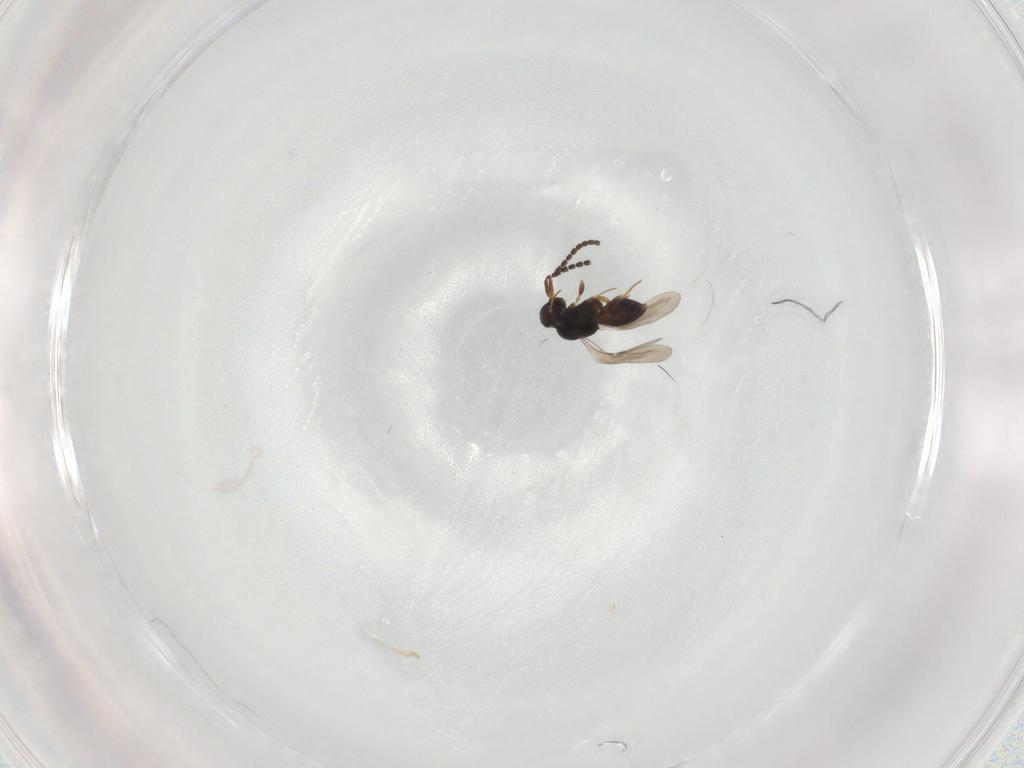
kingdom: Animalia
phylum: Arthropoda
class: Insecta
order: Hymenoptera
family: Ceraphronidae
